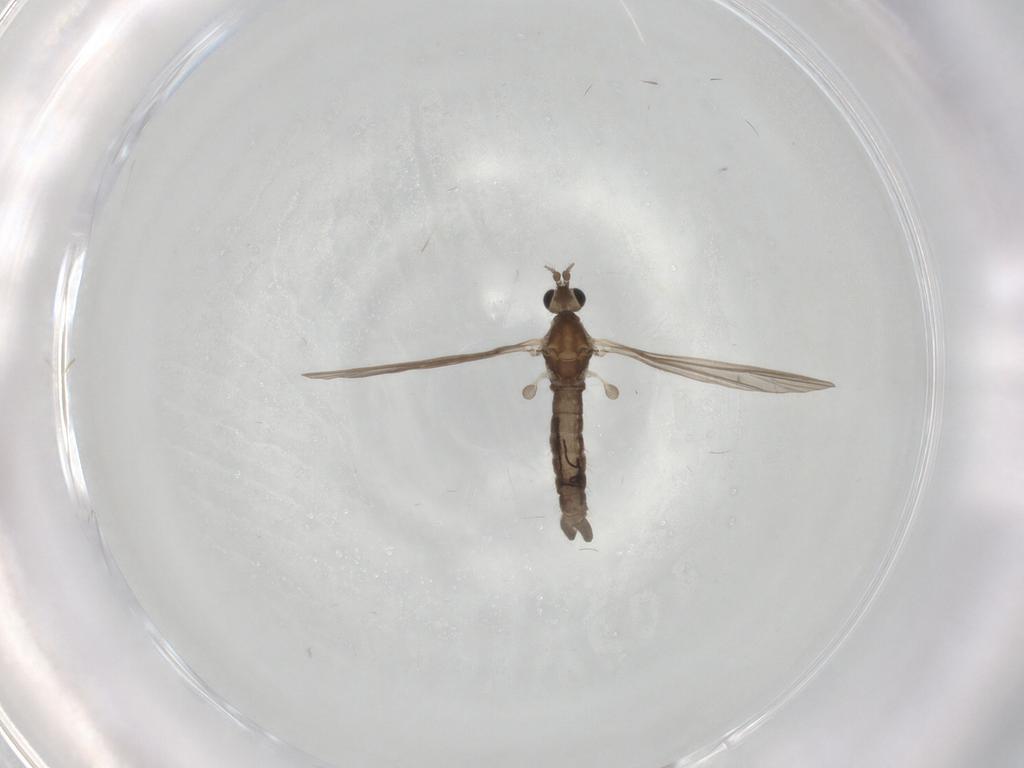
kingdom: Animalia
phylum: Arthropoda
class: Insecta
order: Diptera
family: Limoniidae
